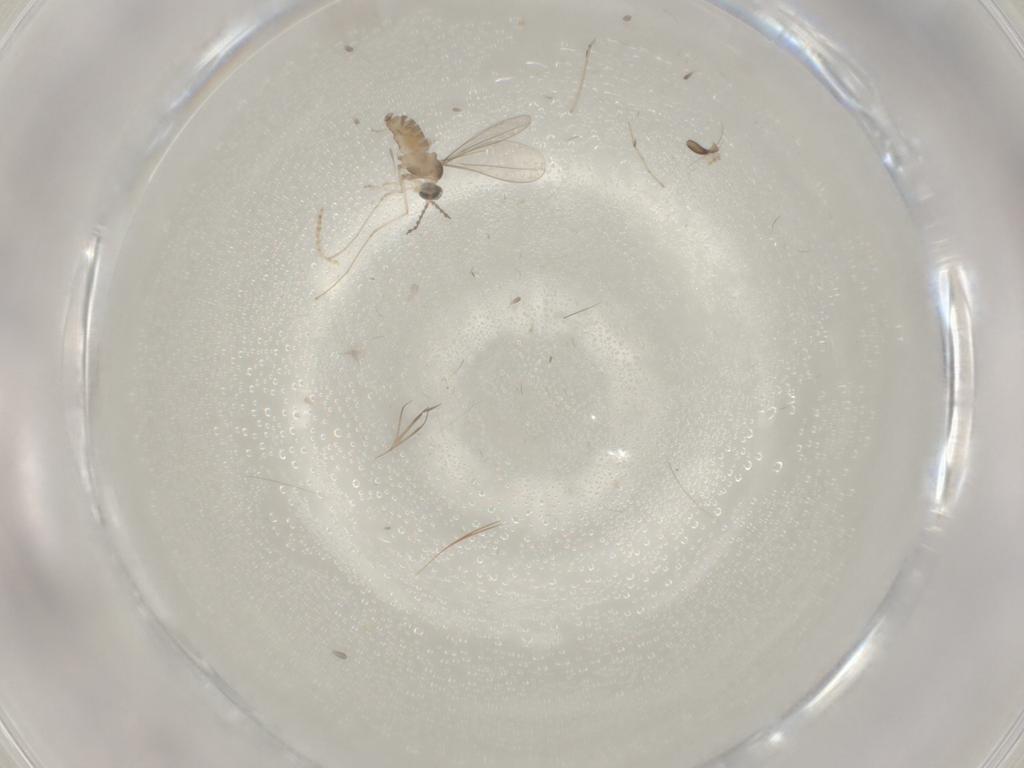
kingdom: Animalia
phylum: Arthropoda
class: Insecta
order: Diptera
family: Cecidomyiidae
